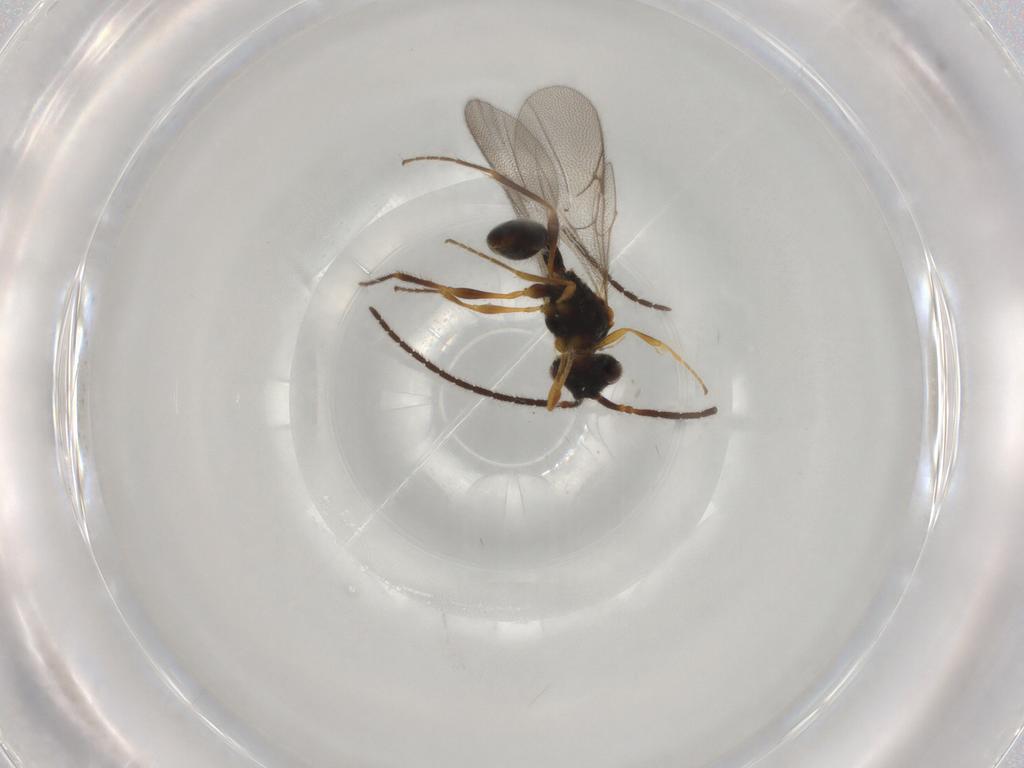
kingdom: Animalia
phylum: Arthropoda
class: Insecta
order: Hymenoptera
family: Diapriidae
